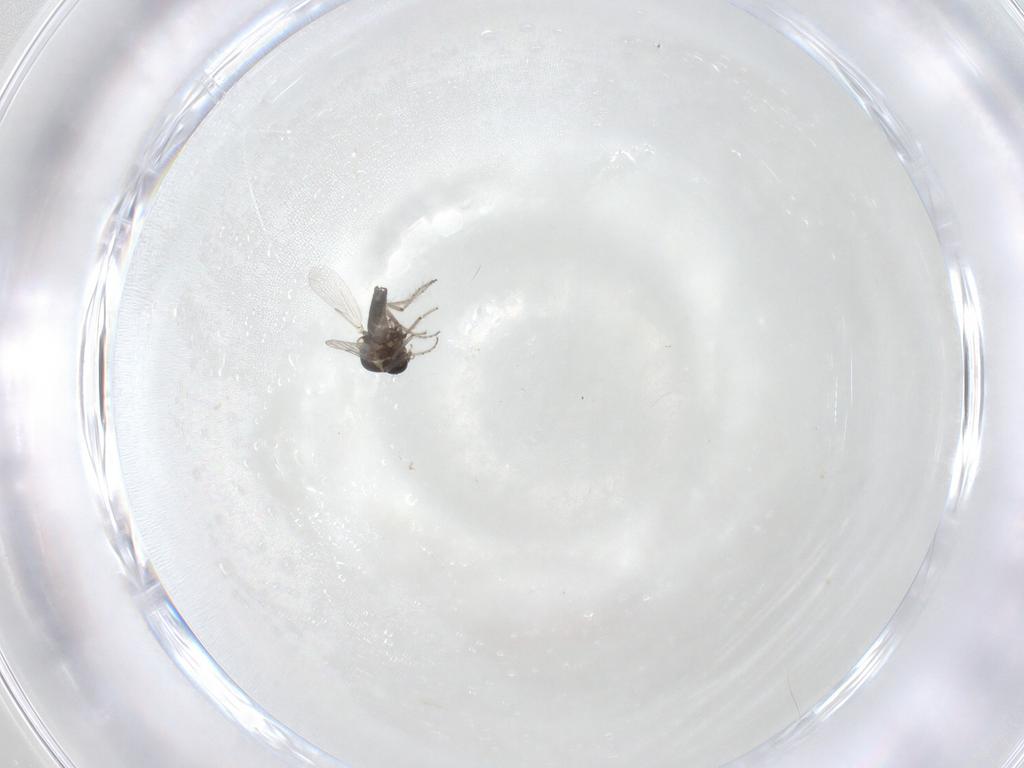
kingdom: Animalia
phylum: Arthropoda
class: Insecta
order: Diptera
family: Ceratopogonidae
